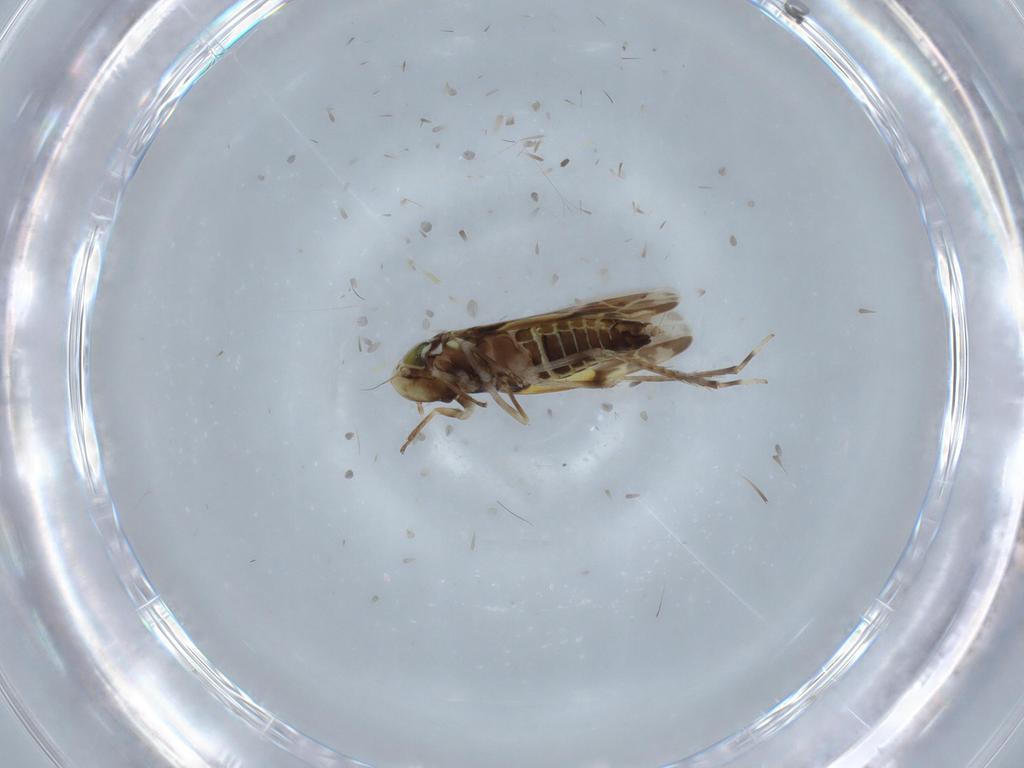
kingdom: Animalia
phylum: Arthropoda
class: Insecta
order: Hemiptera
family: Cicadellidae
